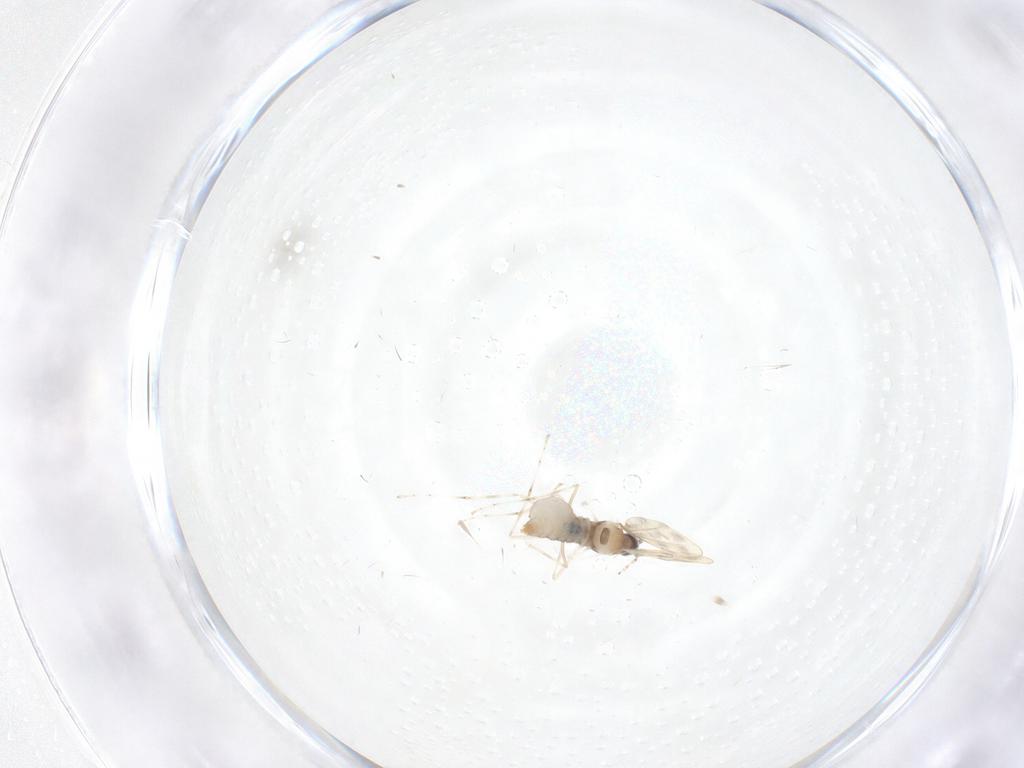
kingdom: Animalia
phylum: Arthropoda
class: Insecta
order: Diptera
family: Cecidomyiidae
